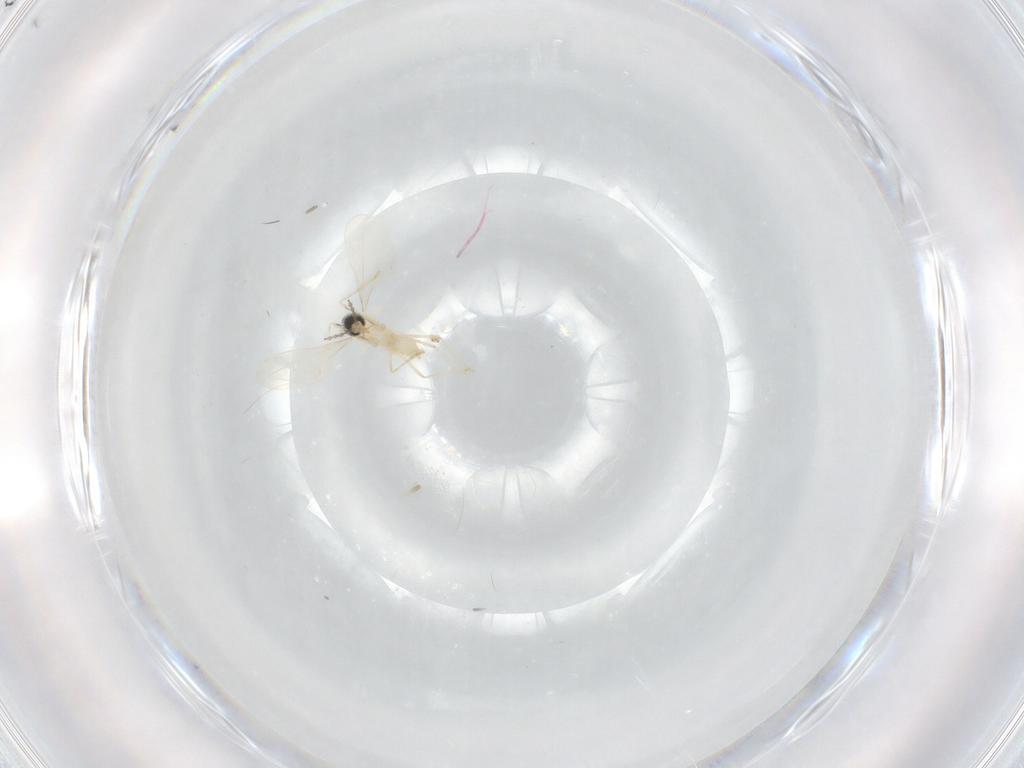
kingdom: Animalia
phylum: Arthropoda
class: Insecta
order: Diptera
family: Cecidomyiidae
